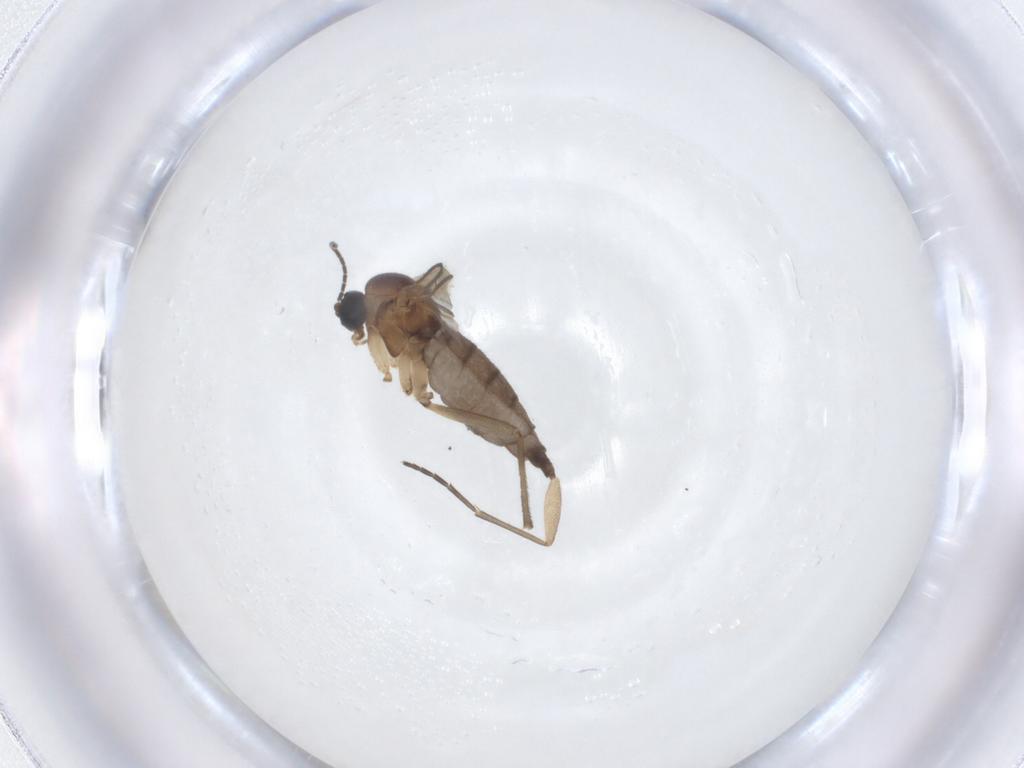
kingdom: Animalia
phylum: Arthropoda
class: Insecta
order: Diptera
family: Sciaridae
